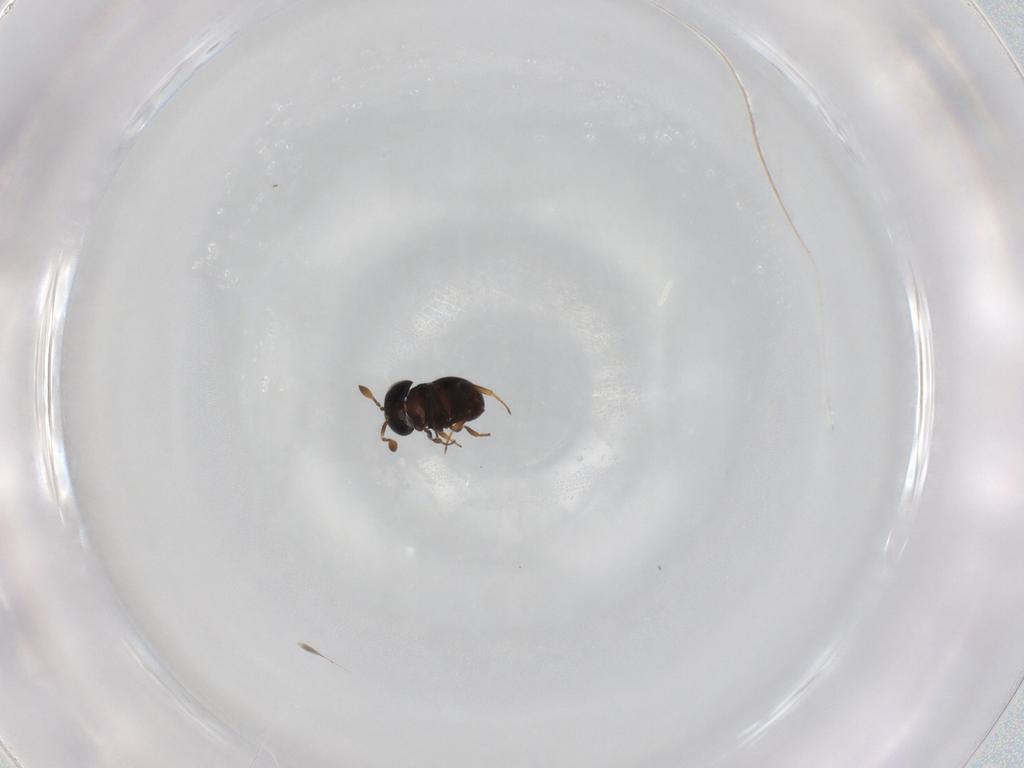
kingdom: Animalia
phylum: Arthropoda
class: Insecta
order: Hymenoptera
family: Scelionidae
